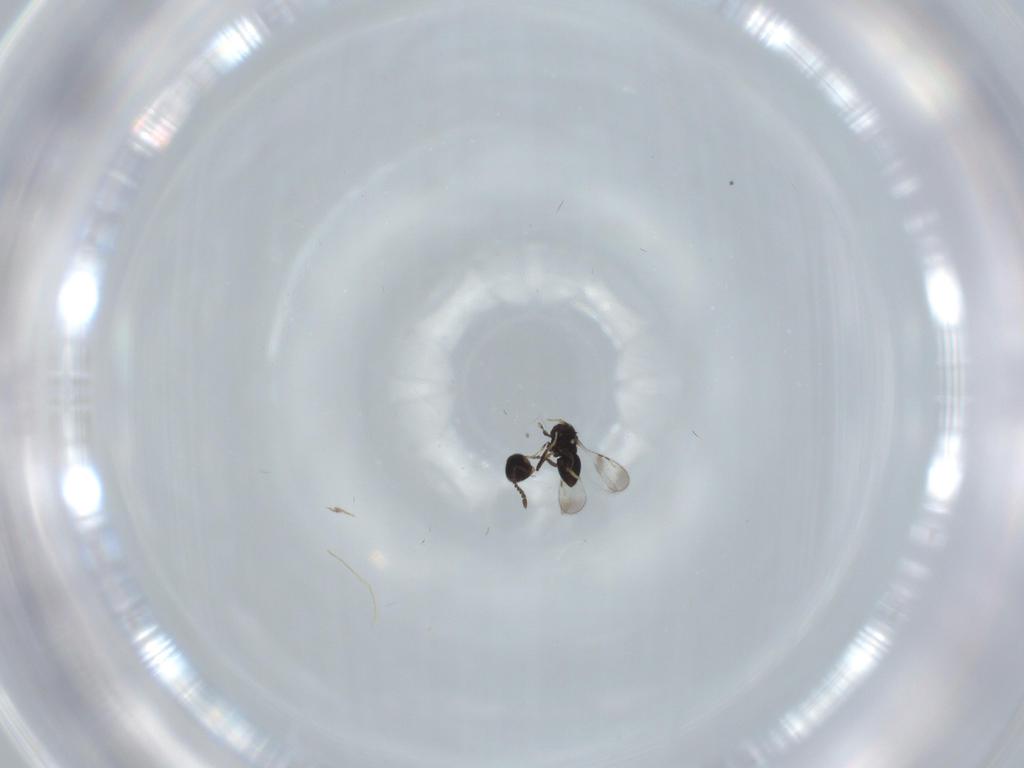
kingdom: Animalia
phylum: Arthropoda
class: Insecta
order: Hymenoptera
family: Aphelinidae
